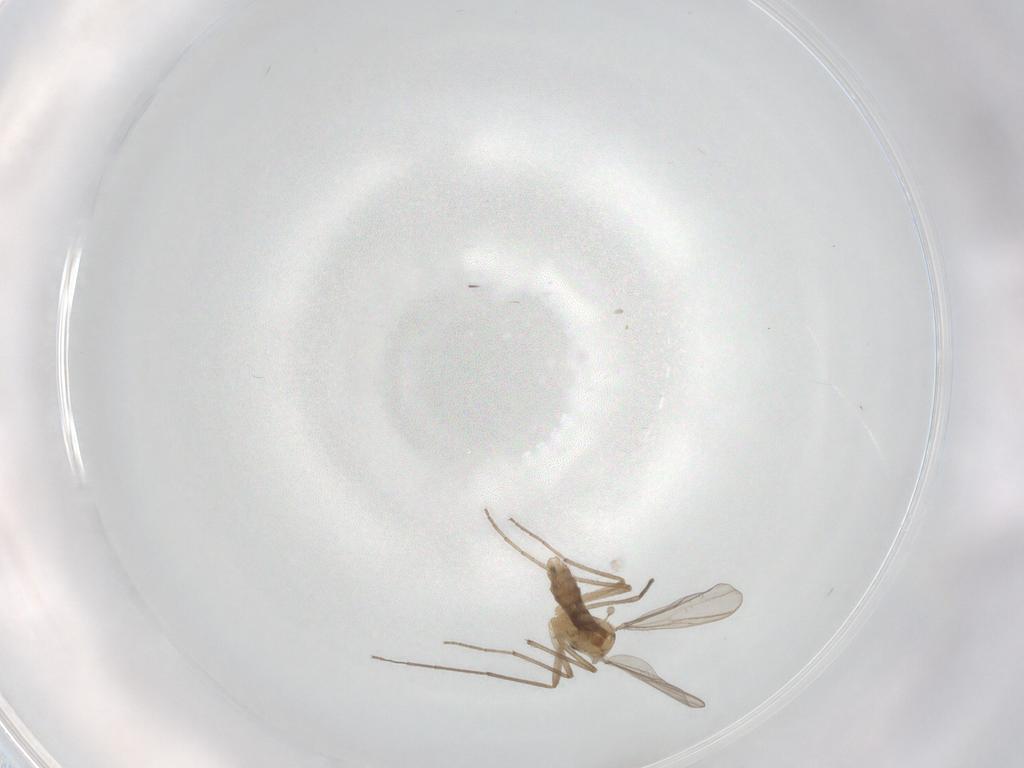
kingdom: Animalia
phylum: Arthropoda
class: Insecta
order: Diptera
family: Chironomidae
